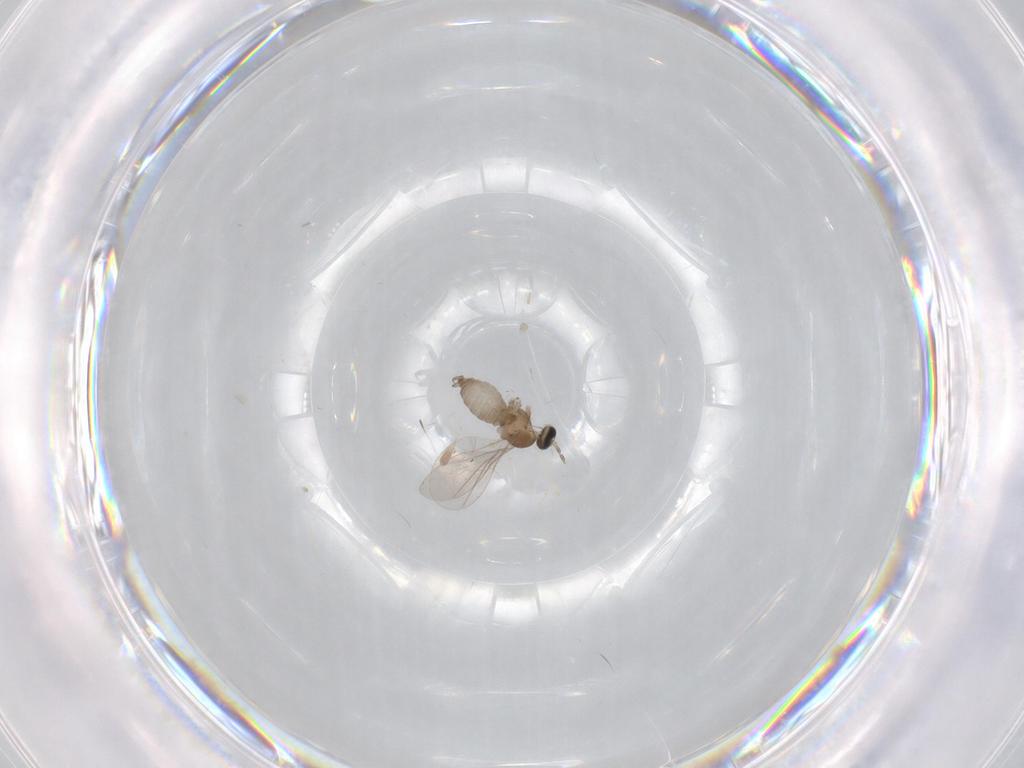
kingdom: Animalia
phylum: Arthropoda
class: Insecta
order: Diptera
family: Cecidomyiidae
